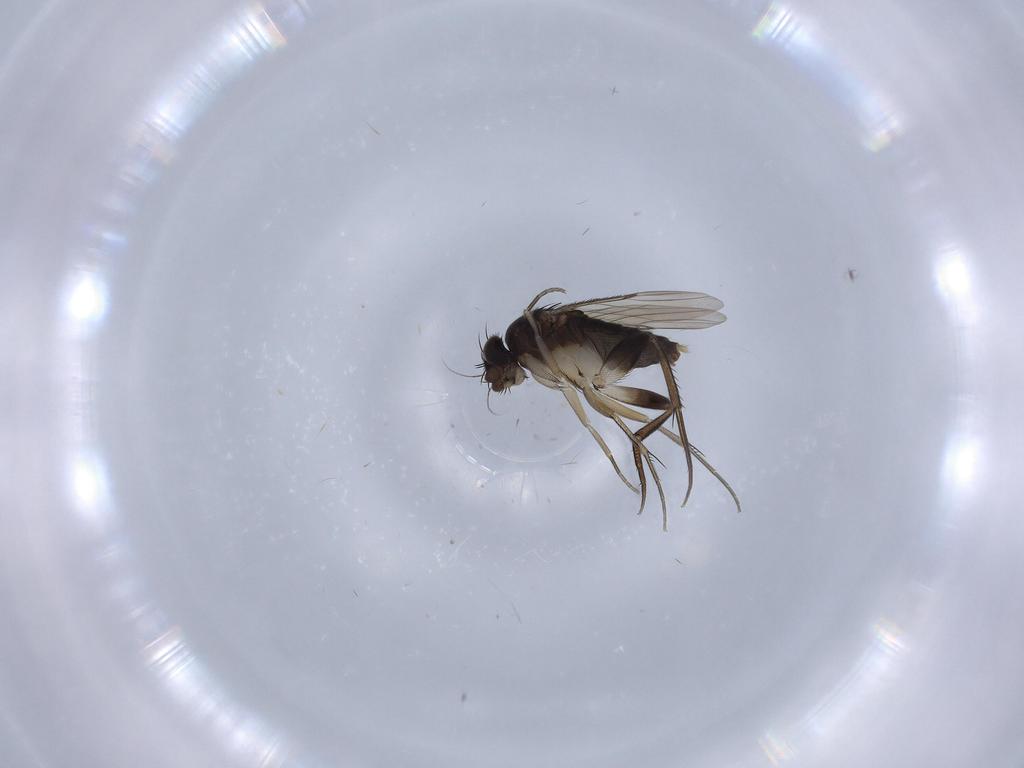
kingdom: Animalia
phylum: Arthropoda
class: Insecta
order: Diptera
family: Phoridae
